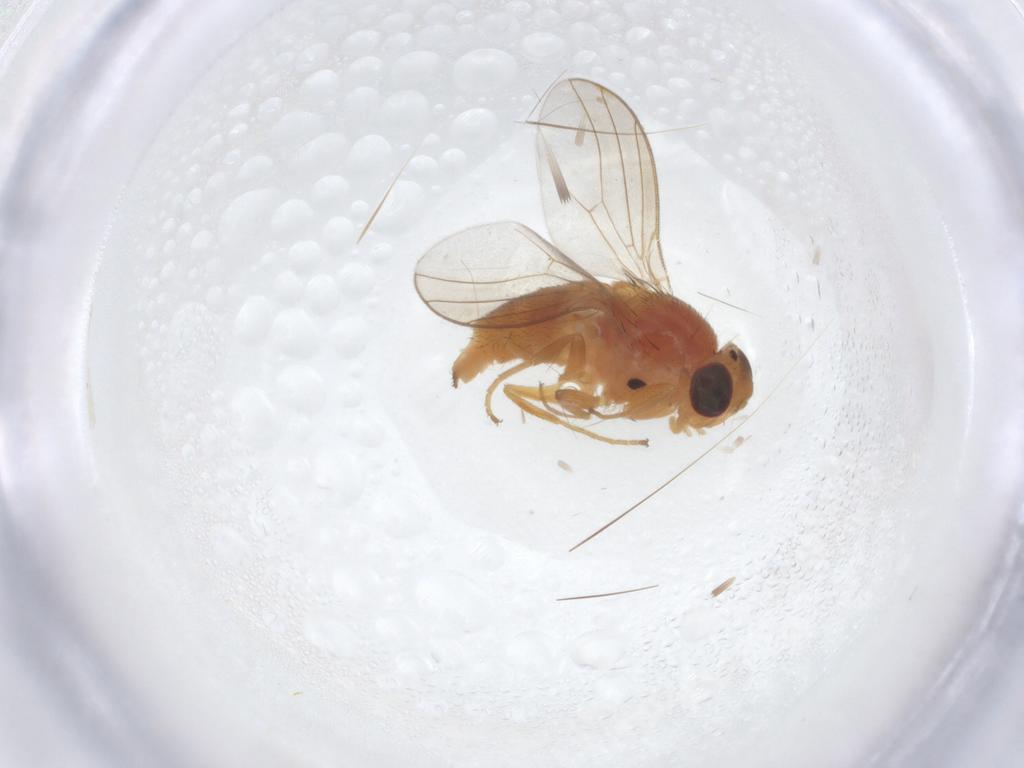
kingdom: Animalia
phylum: Arthropoda
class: Insecta
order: Diptera
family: Chloropidae
